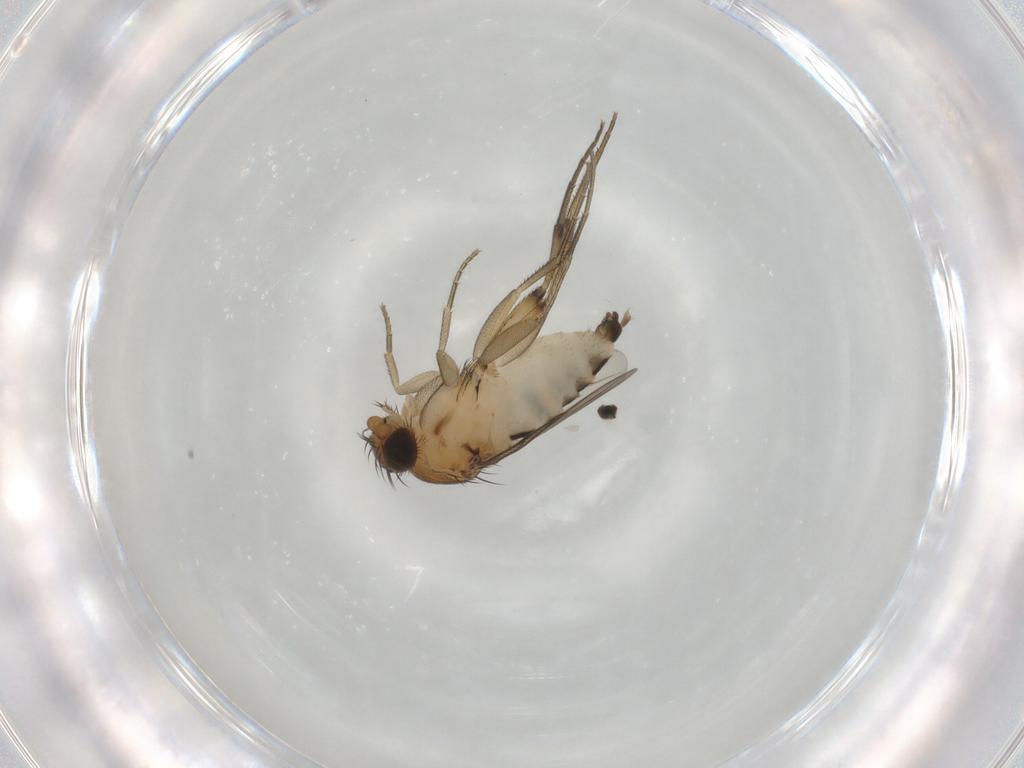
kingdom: Animalia
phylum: Arthropoda
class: Insecta
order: Diptera
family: Phoridae
